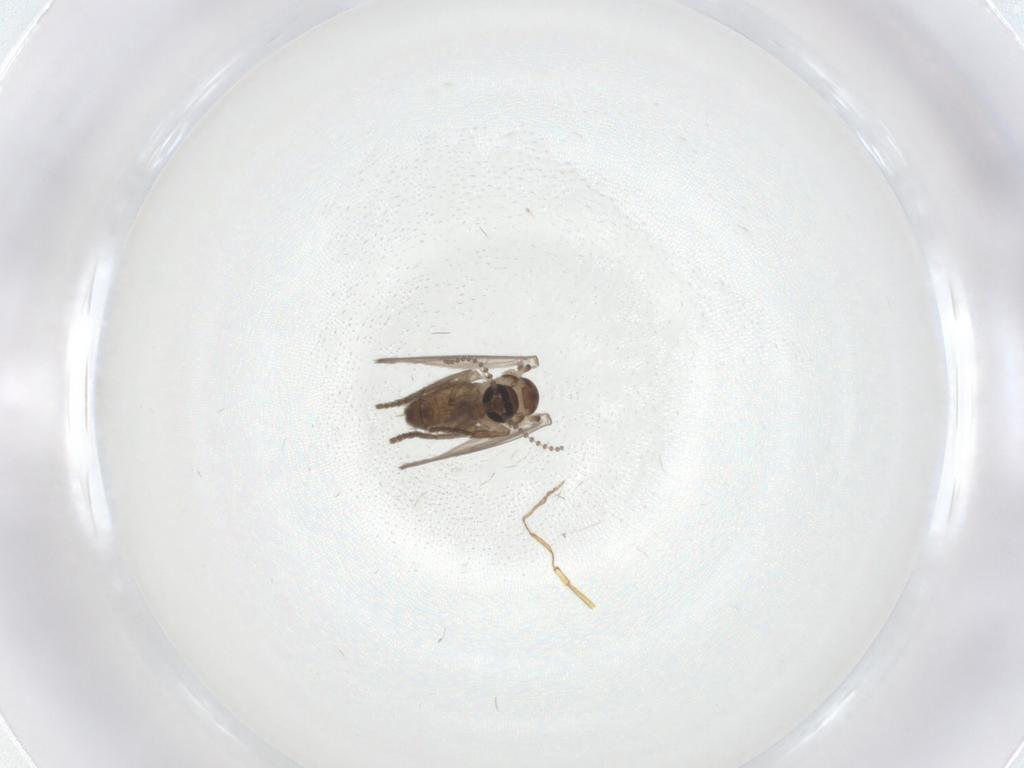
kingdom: Animalia
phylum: Arthropoda
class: Insecta
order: Diptera
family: Psychodidae
